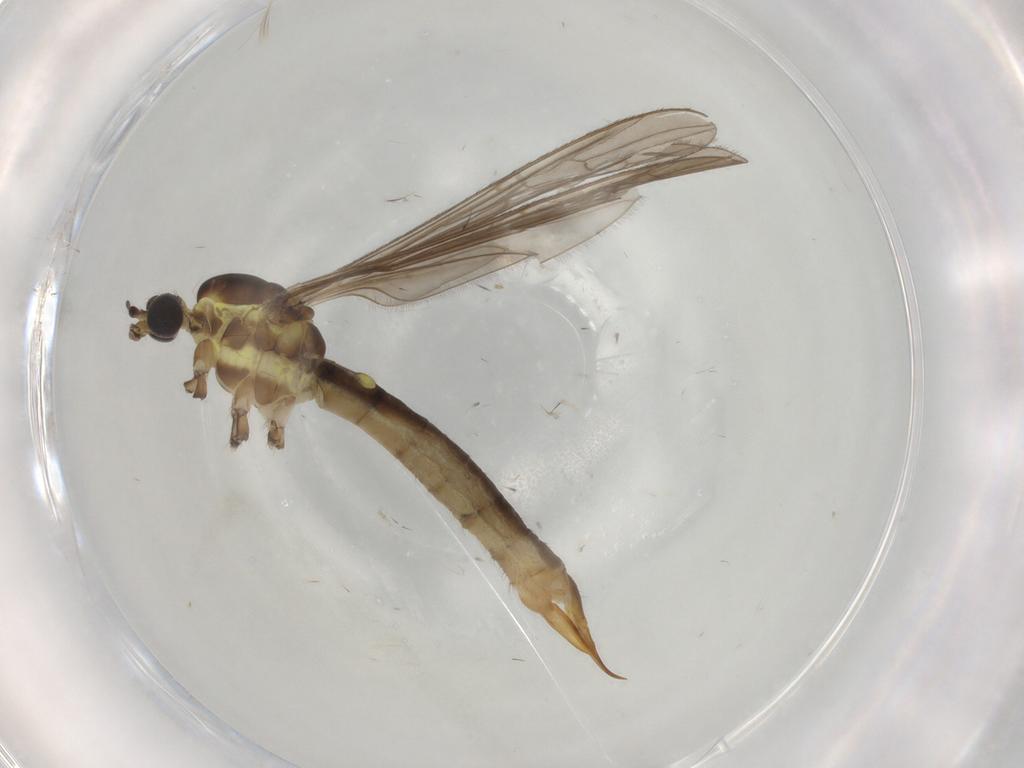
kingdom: Animalia
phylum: Arthropoda
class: Insecta
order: Diptera
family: Limoniidae
